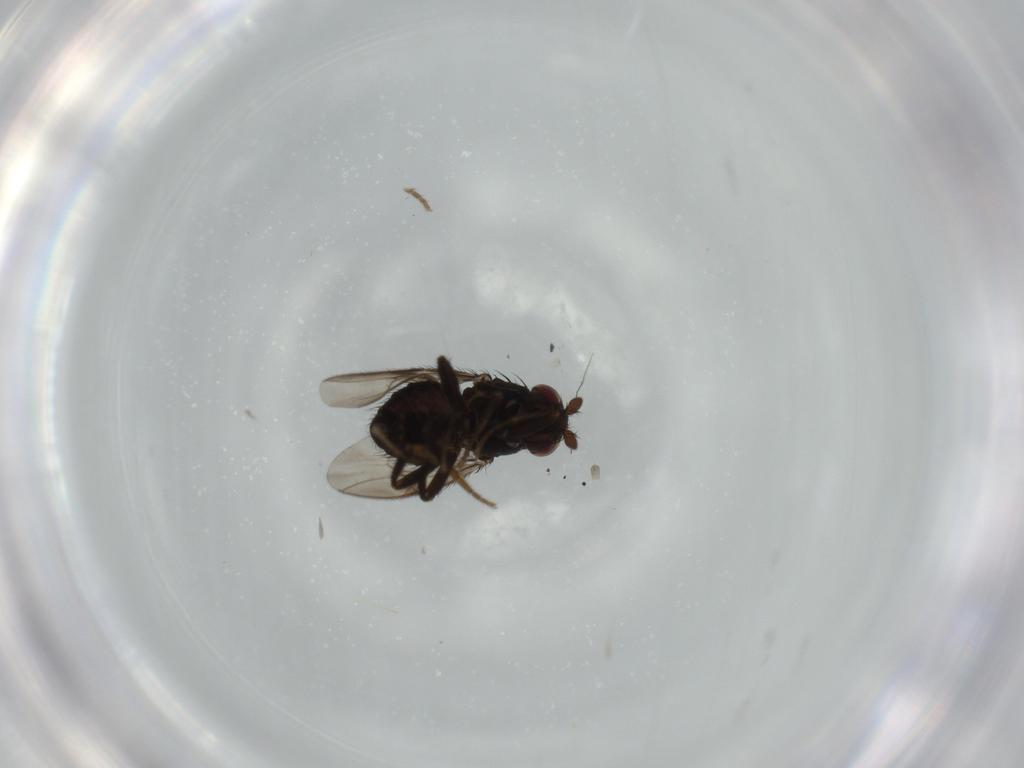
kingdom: Animalia
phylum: Arthropoda
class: Insecta
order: Diptera
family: Sphaeroceridae
